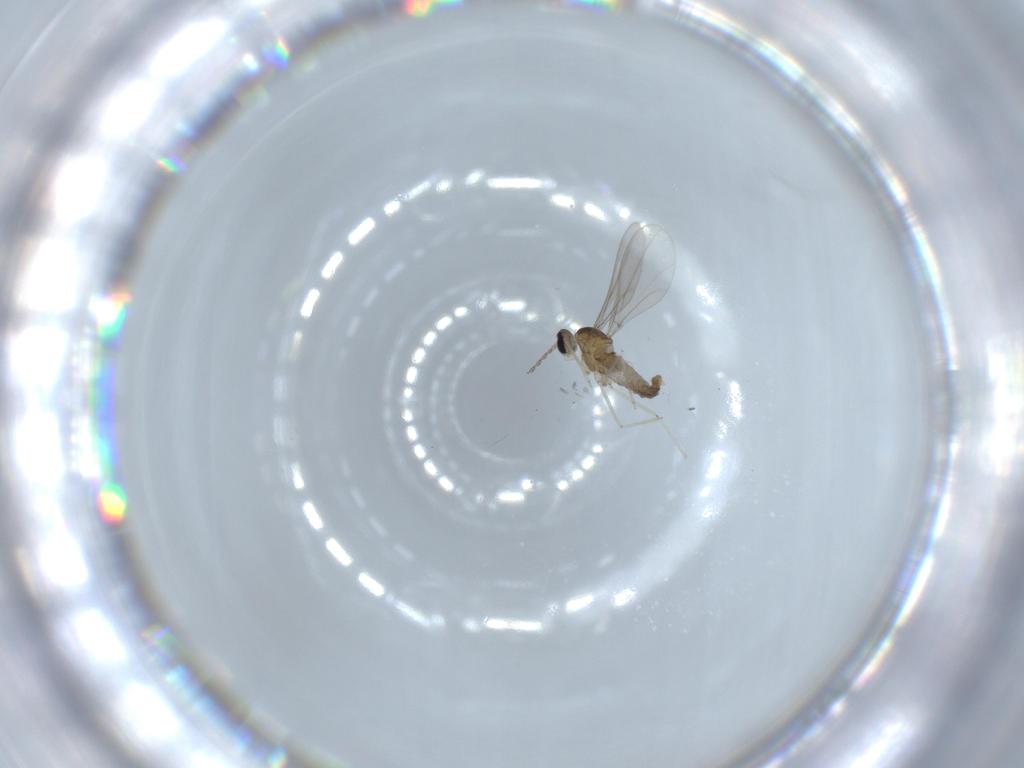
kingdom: Animalia
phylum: Arthropoda
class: Insecta
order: Diptera
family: Cecidomyiidae
